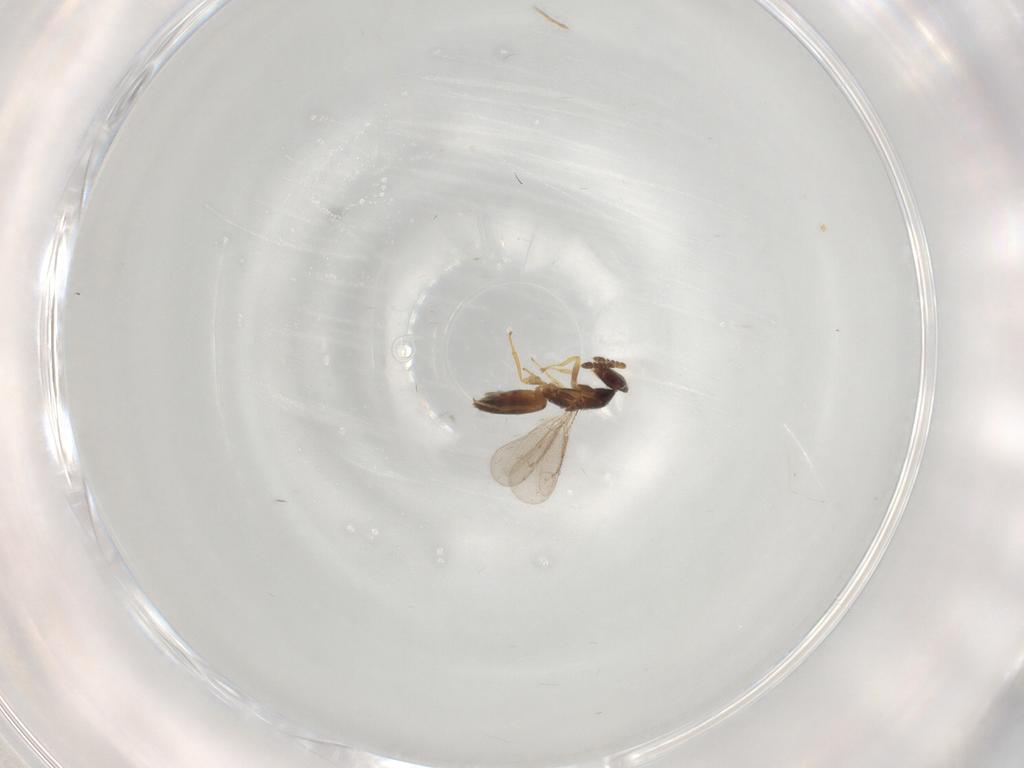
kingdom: Animalia
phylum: Arthropoda
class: Insecta
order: Hymenoptera
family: Eulophidae
